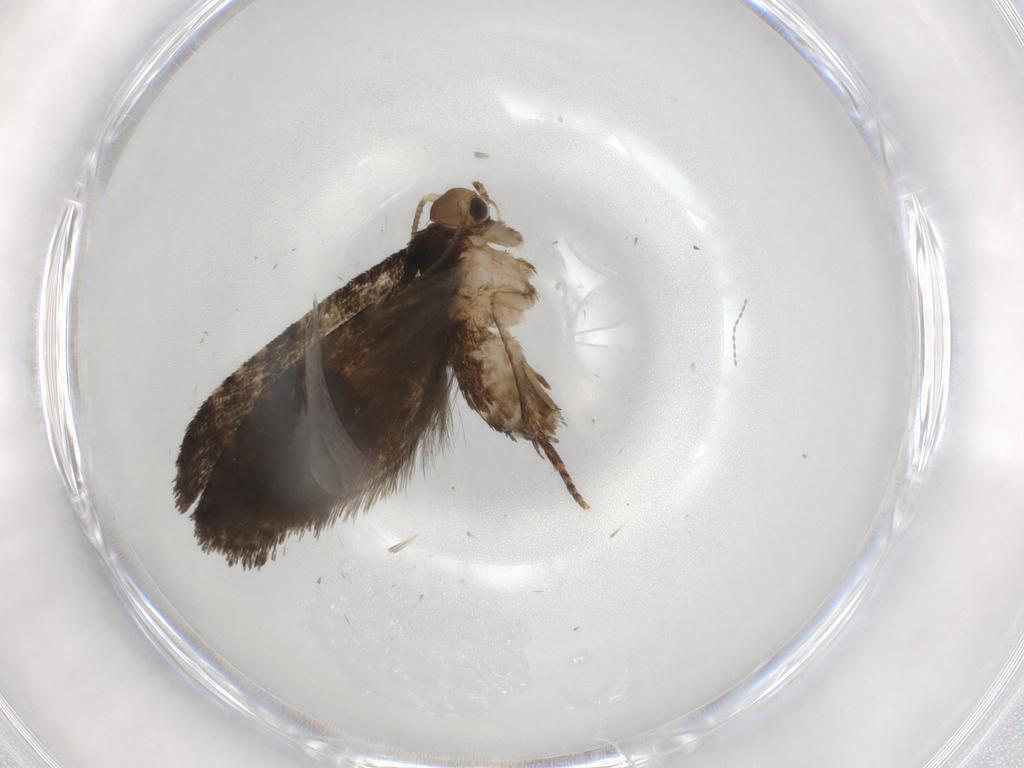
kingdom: Animalia
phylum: Arthropoda
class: Insecta
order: Lepidoptera
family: Tortricidae
